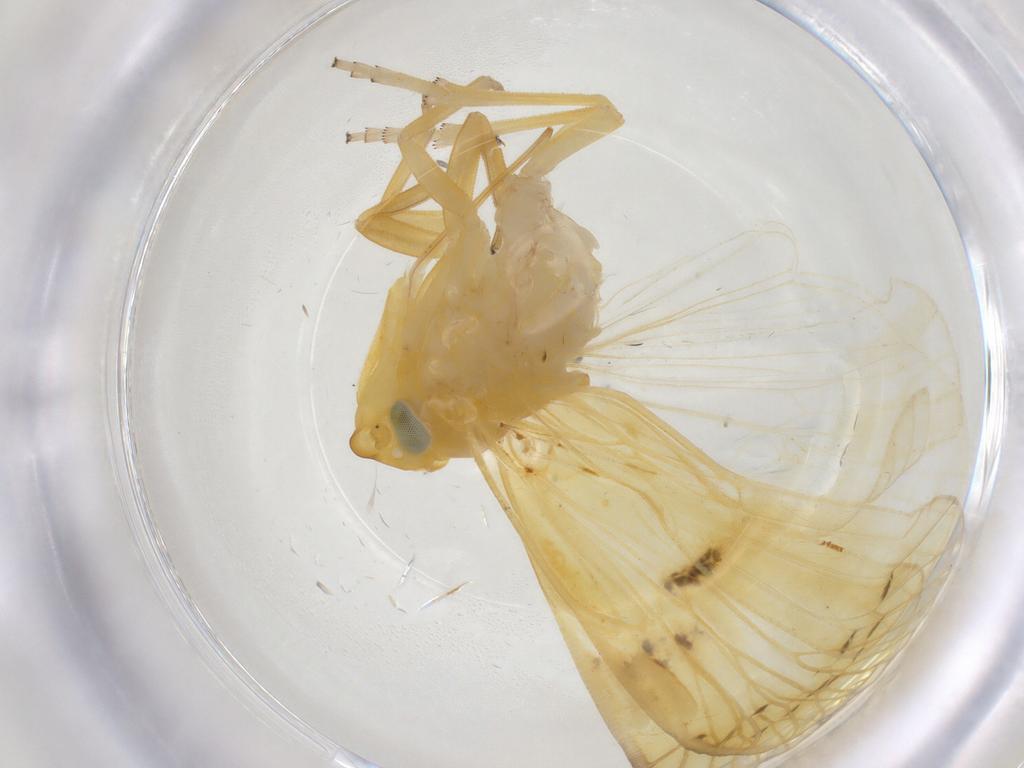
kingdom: Animalia
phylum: Arthropoda
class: Insecta
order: Hemiptera
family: Cixiidae
